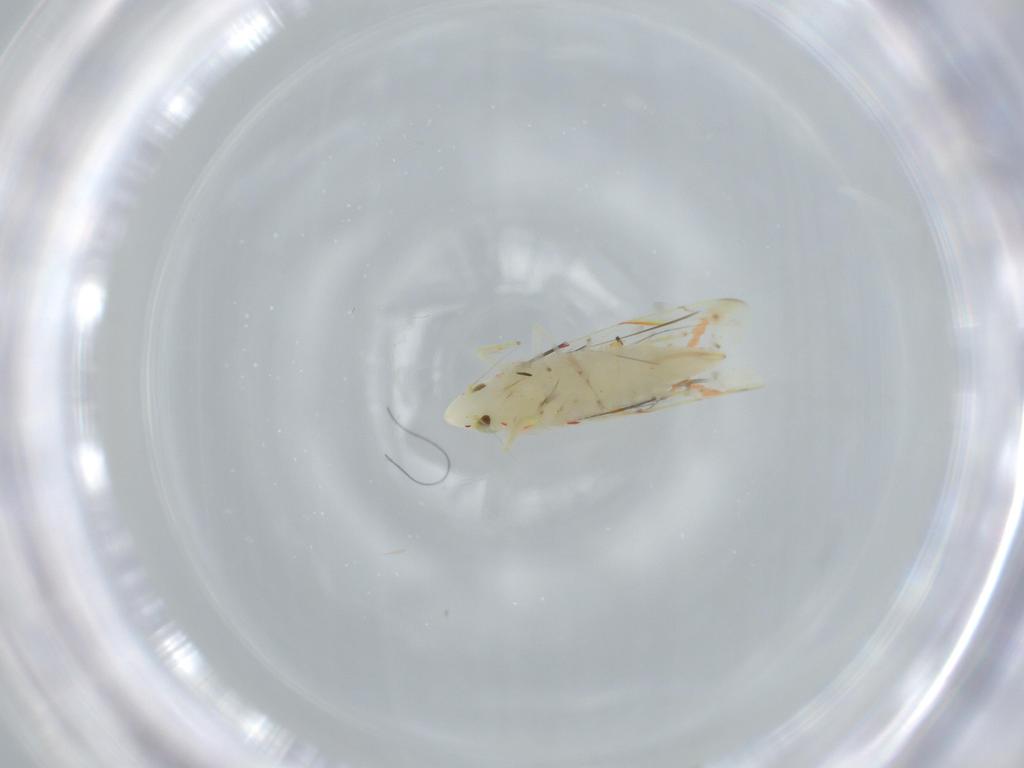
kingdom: Animalia
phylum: Arthropoda
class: Insecta
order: Hemiptera
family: Cicadellidae
